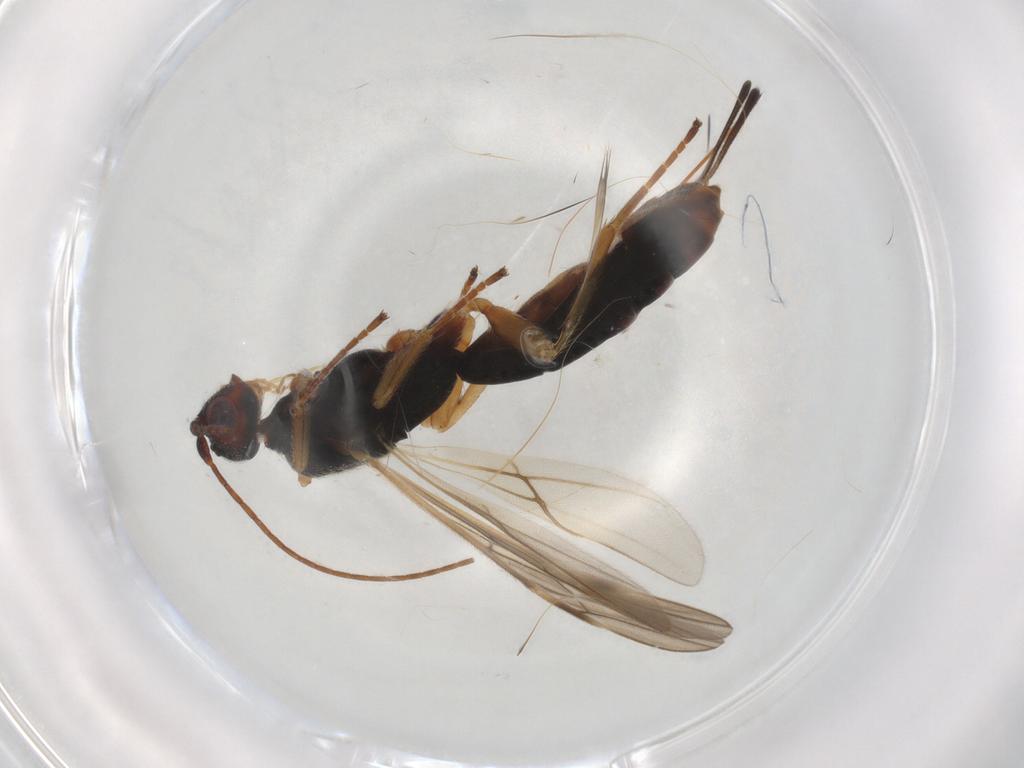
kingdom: Animalia
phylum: Arthropoda
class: Insecta
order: Hymenoptera
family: Braconidae
